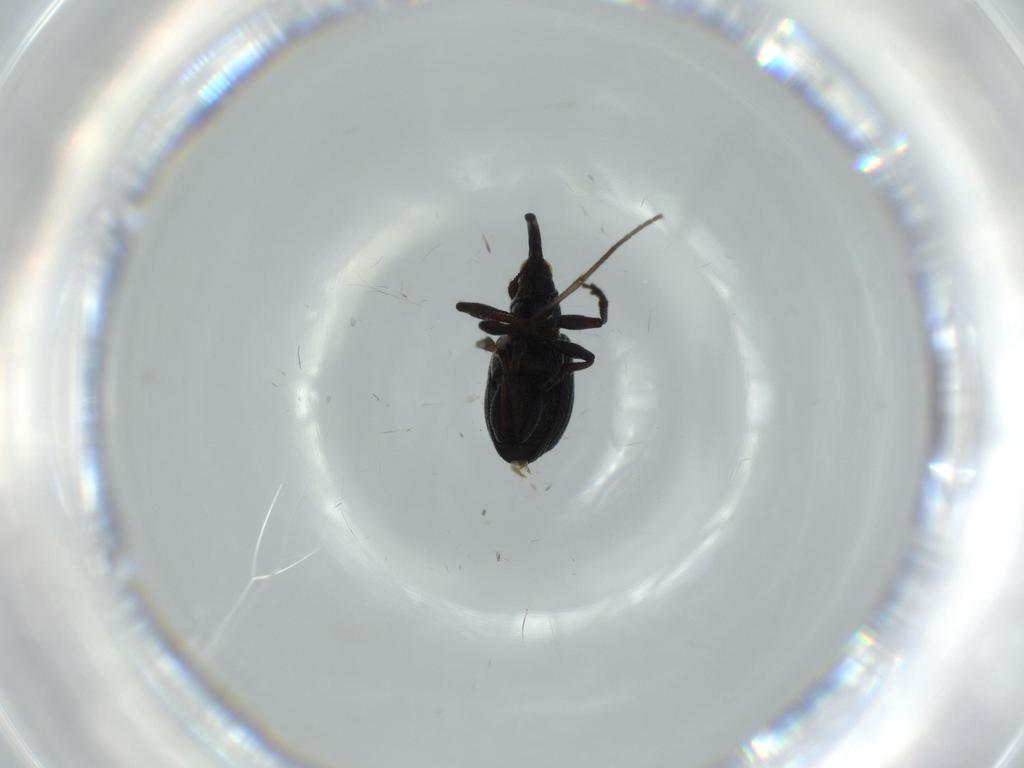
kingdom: Animalia
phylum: Arthropoda
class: Insecta
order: Coleoptera
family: Brentidae
